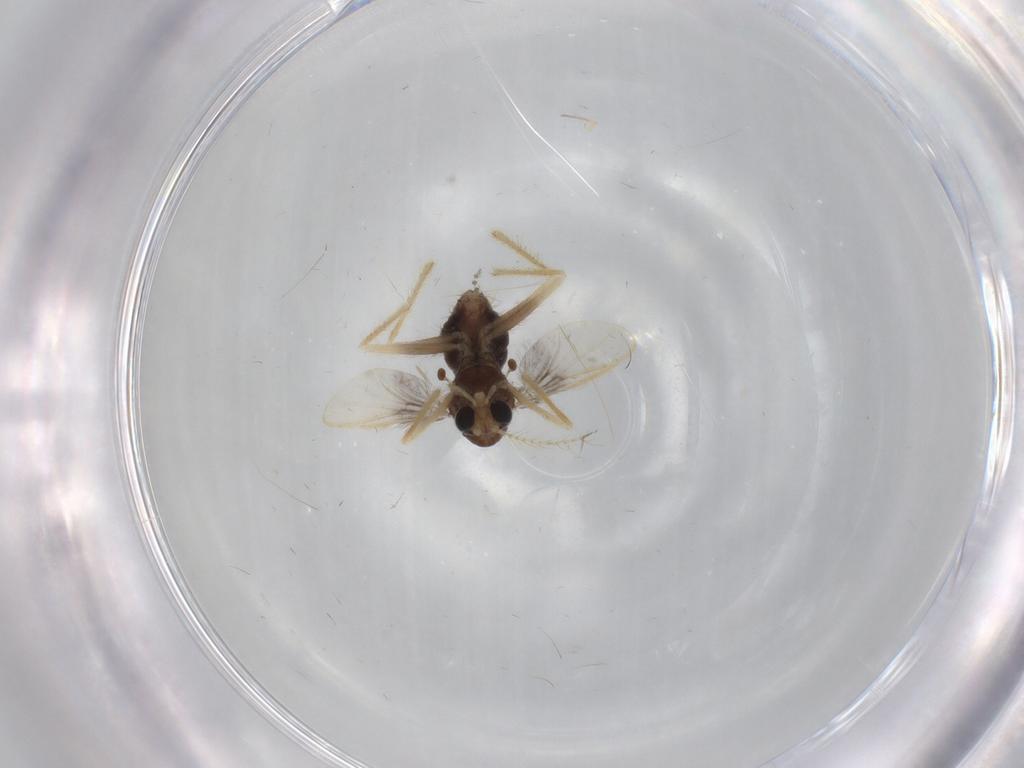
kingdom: Animalia
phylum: Arthropoda
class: Insecta
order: Diptera
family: Chironomidae
